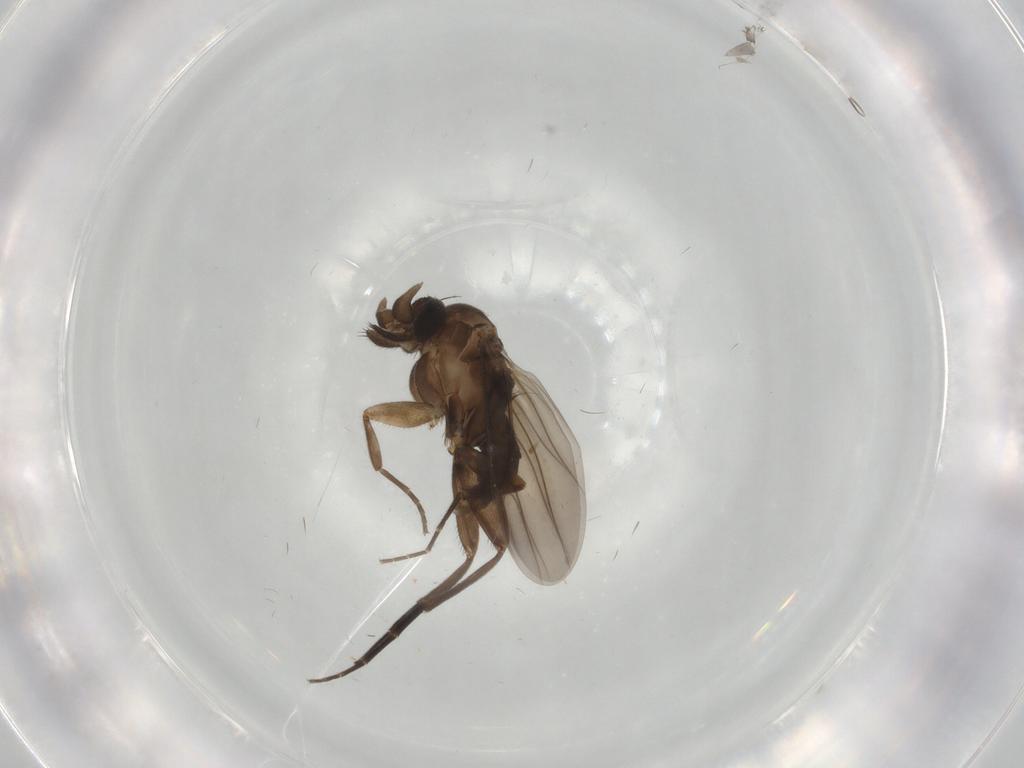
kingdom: Animalia
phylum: Arthropoda
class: Insecta
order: Diptera
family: Phoridae
